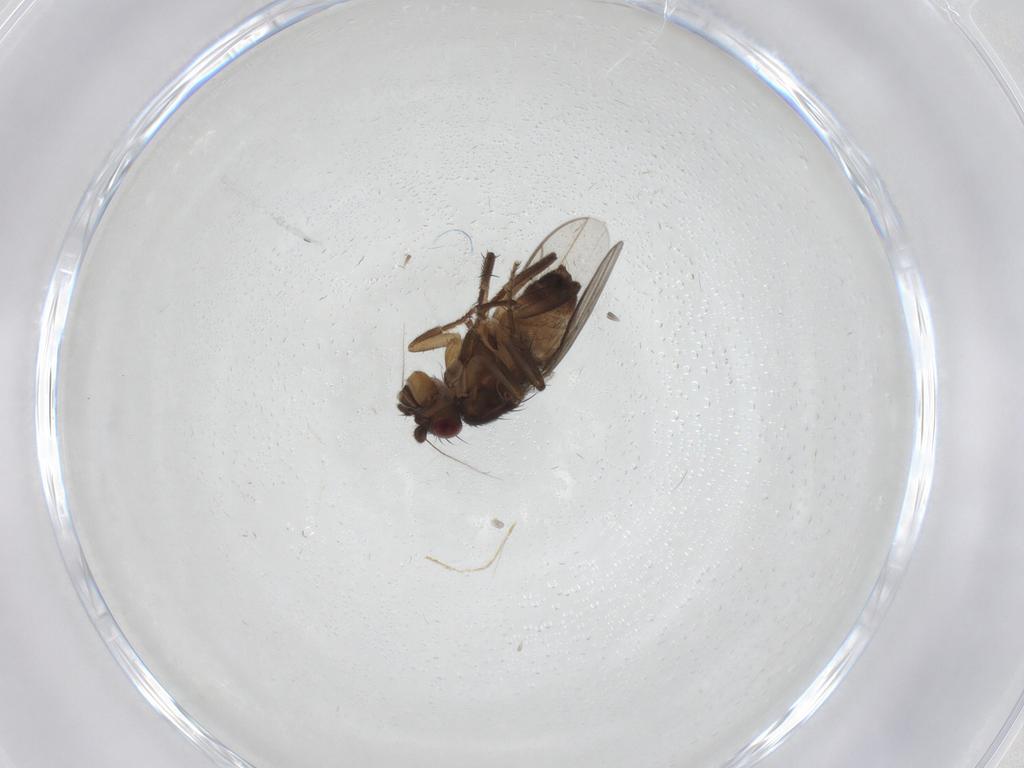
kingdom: Animalia
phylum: Arthropoda
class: Insecta
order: Diptera
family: Sphaeroceridae
